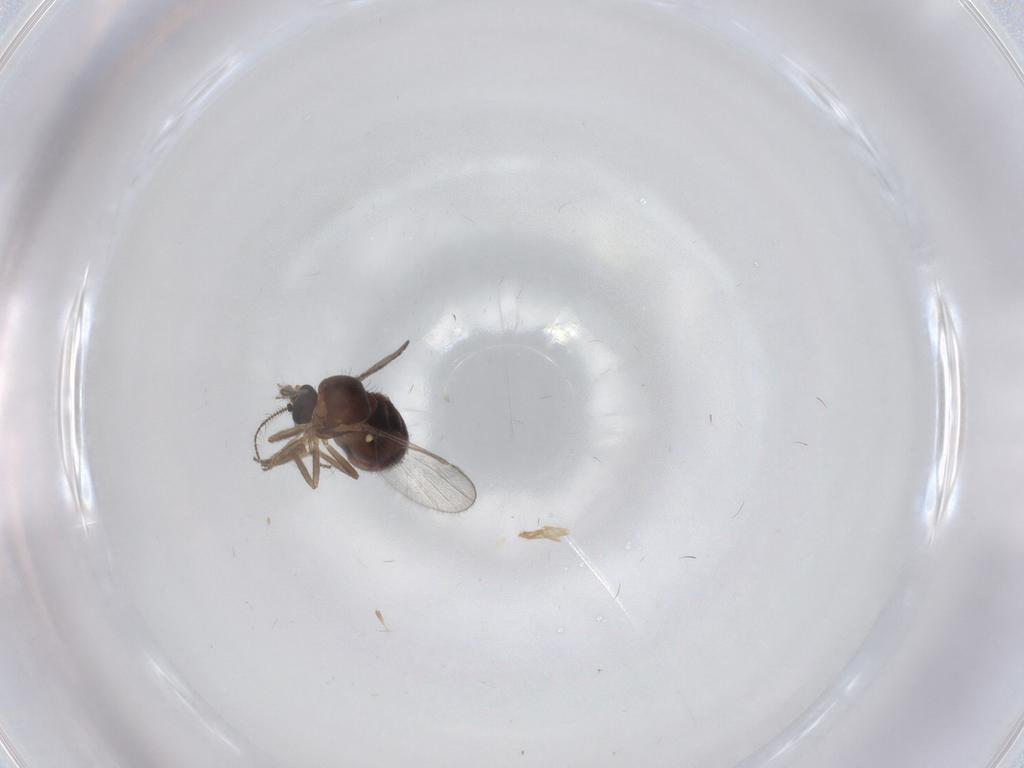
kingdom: Animalia
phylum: Arthropoda
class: Insecta
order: Diptera
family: Ceratopogonidae
